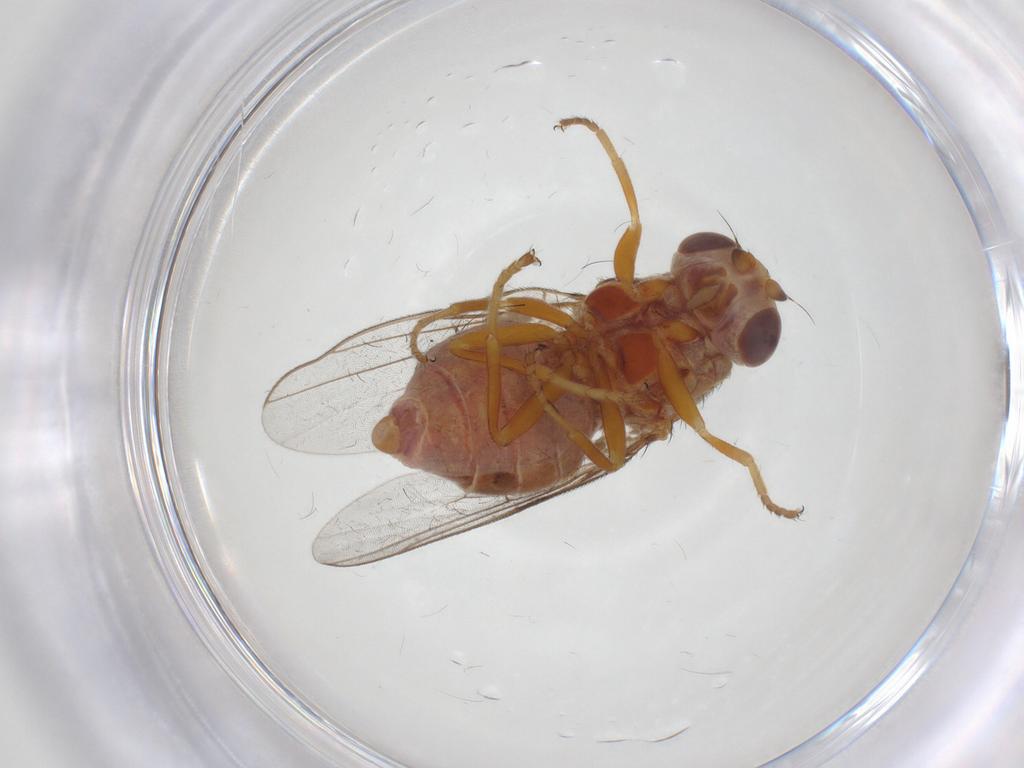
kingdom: Animalia
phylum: Arthropoda
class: Insecta
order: Diptera
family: Chloropidae
